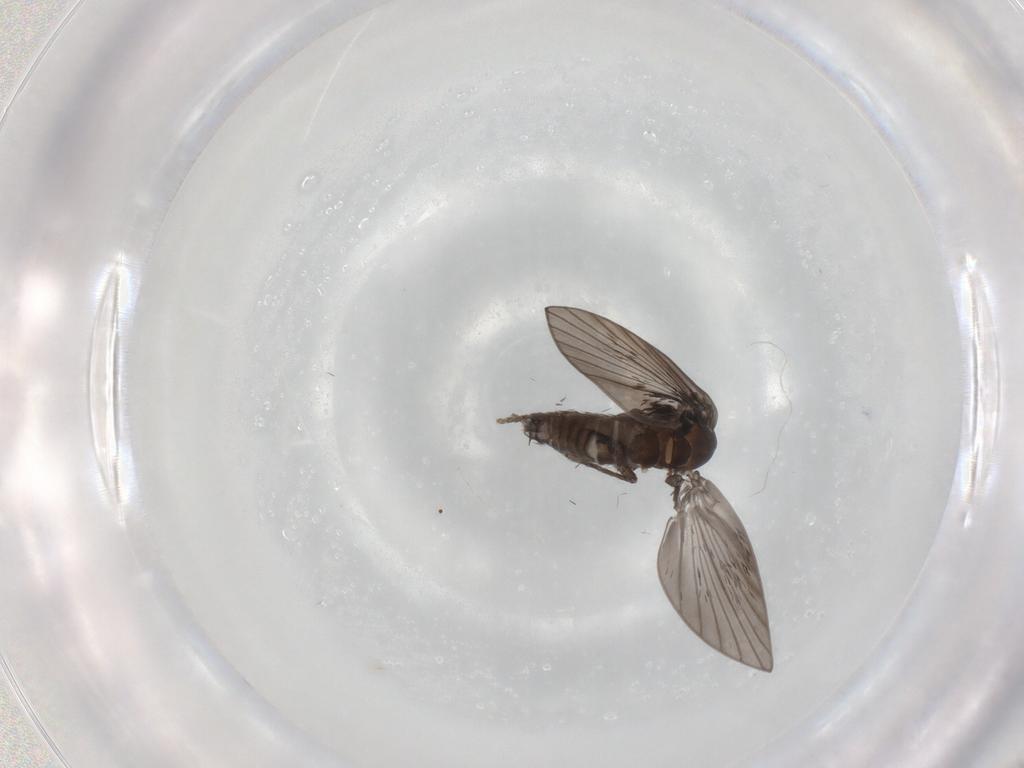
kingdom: Animalia
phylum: Arthropoda
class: Insecta
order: Diptera
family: Psychodidae
